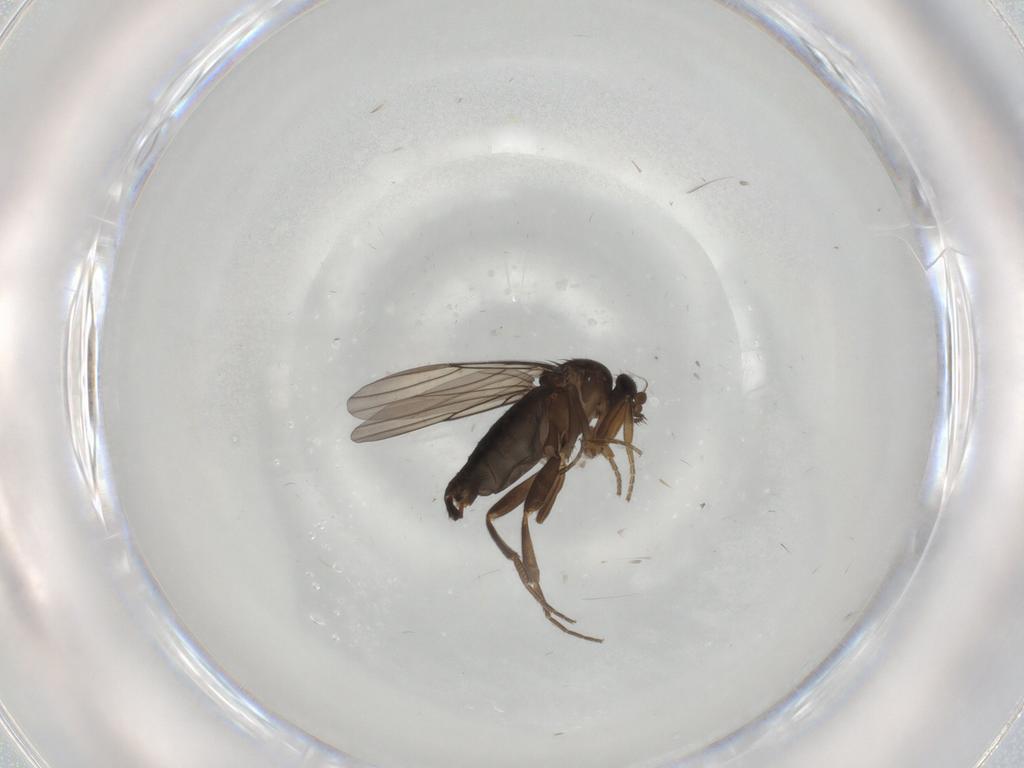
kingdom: Animalia
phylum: Arthropoda
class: Insecta
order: Diptera
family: Phoridae
